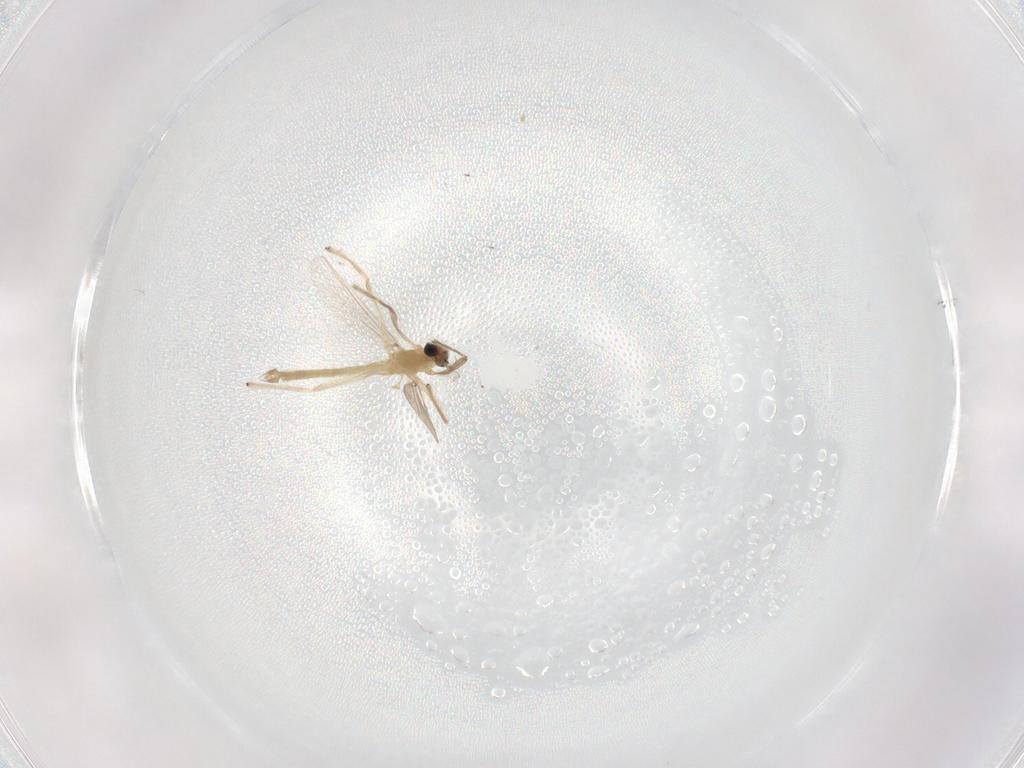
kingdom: Animalia
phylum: Arthropoda
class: Insecta
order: Diptera
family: Chironomidae
